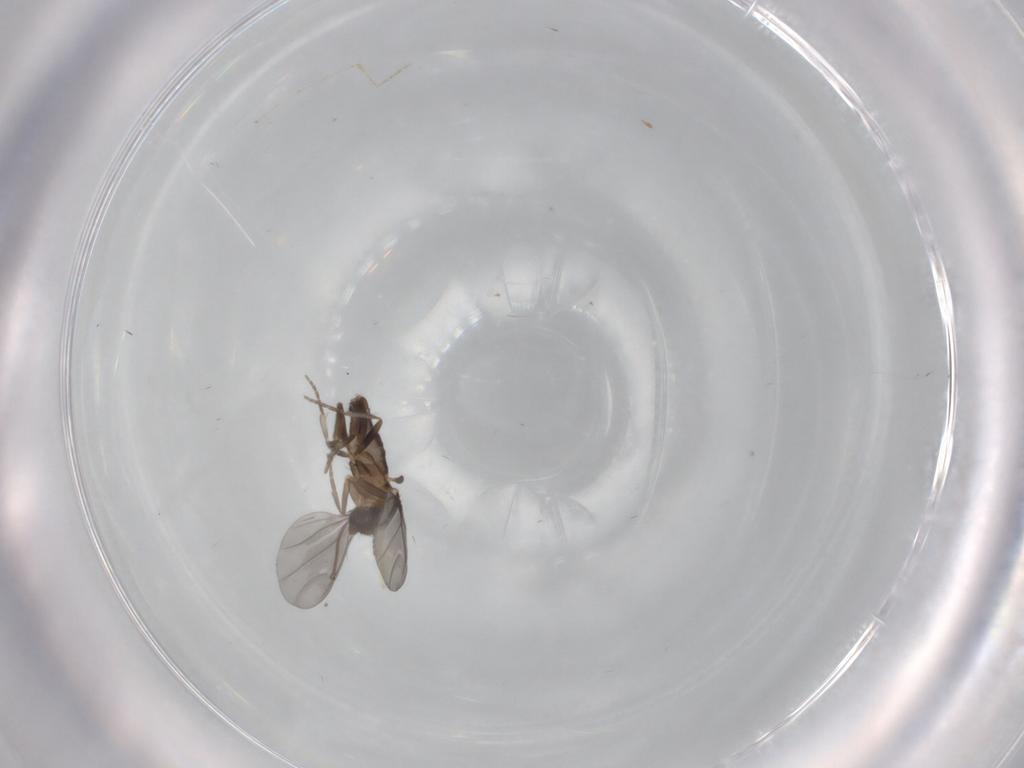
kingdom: Animalia
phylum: Arthropoda
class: Insecta
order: Diptera
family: Phoridae
